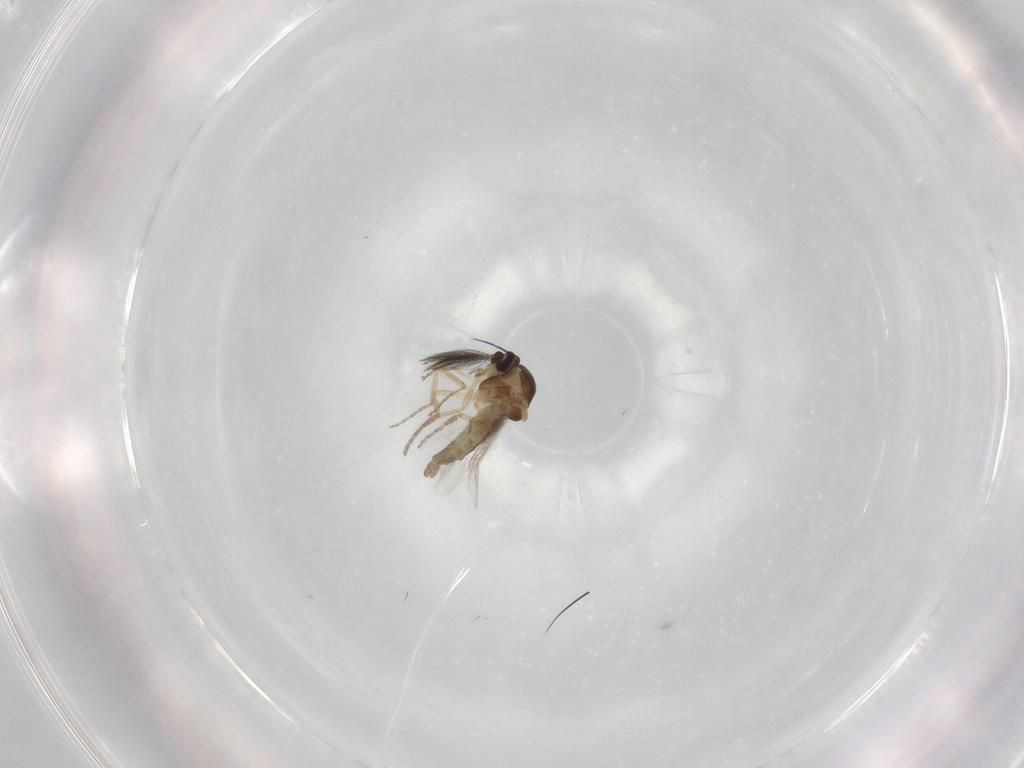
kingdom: Animalia
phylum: Arthropoda
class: Insecta
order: Diptera
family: Ceratopogonidae
